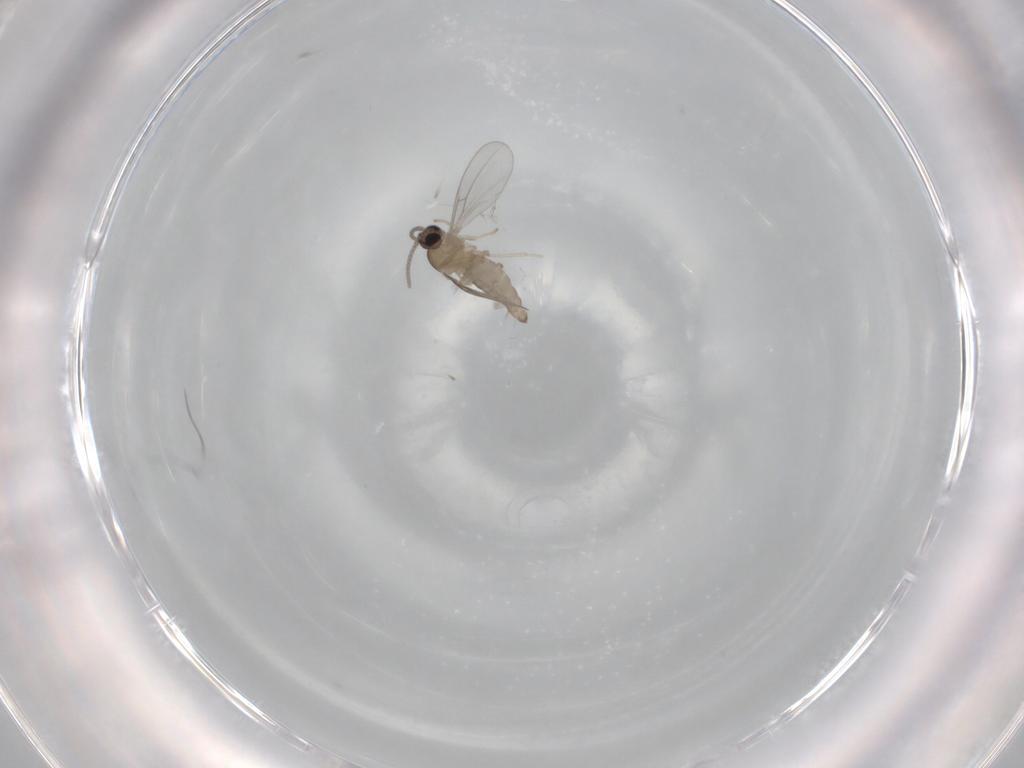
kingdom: Animalia
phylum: Arthropoda
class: Insecta
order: Diptera
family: Cecidomyiidae
